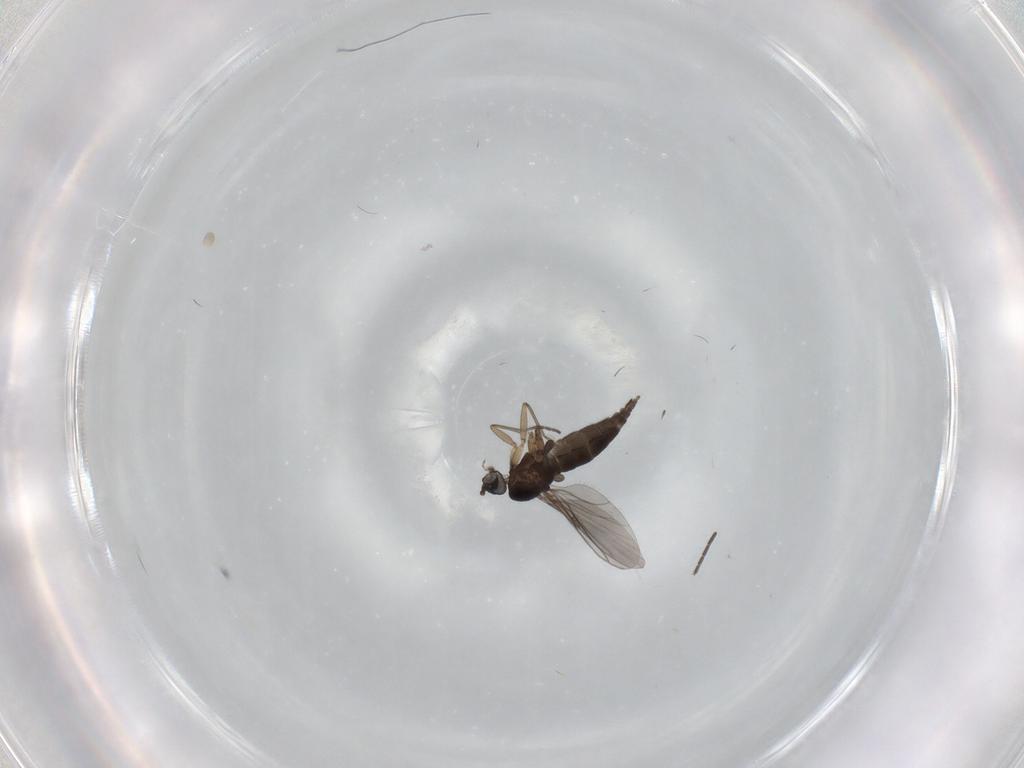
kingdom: Animalia
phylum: Arthropoda
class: Insecta
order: Diptera
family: Sciaridae
